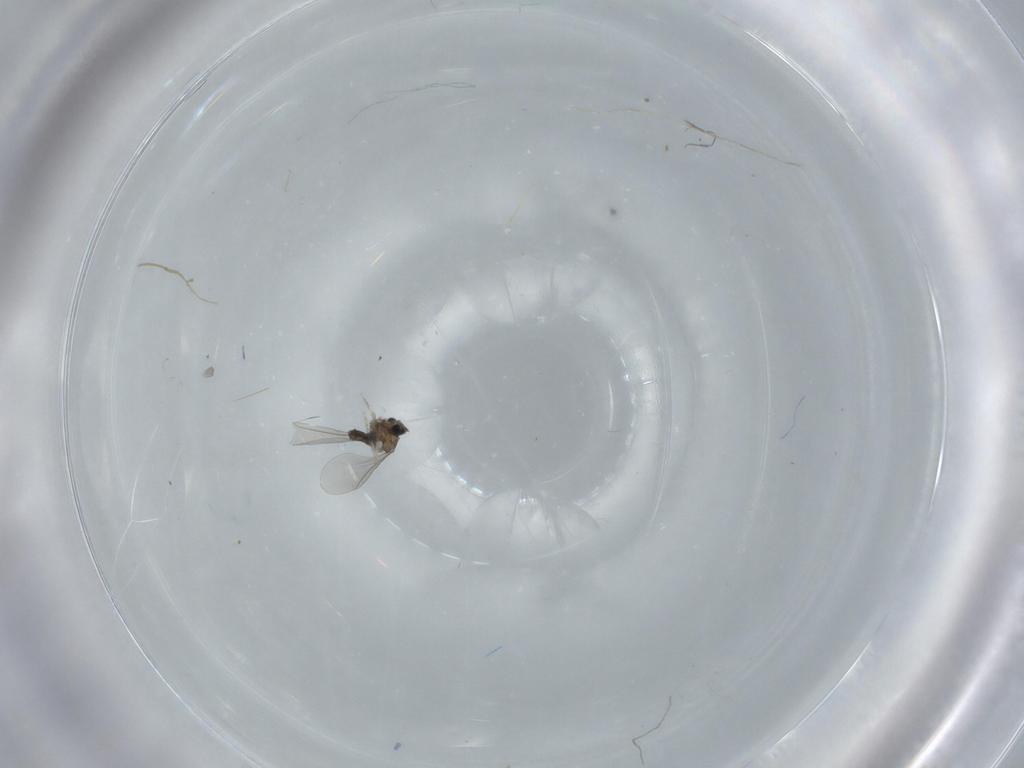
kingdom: Animalia
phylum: Arthropoda
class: Insecta
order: Diptera
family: Cecidomyiidae
